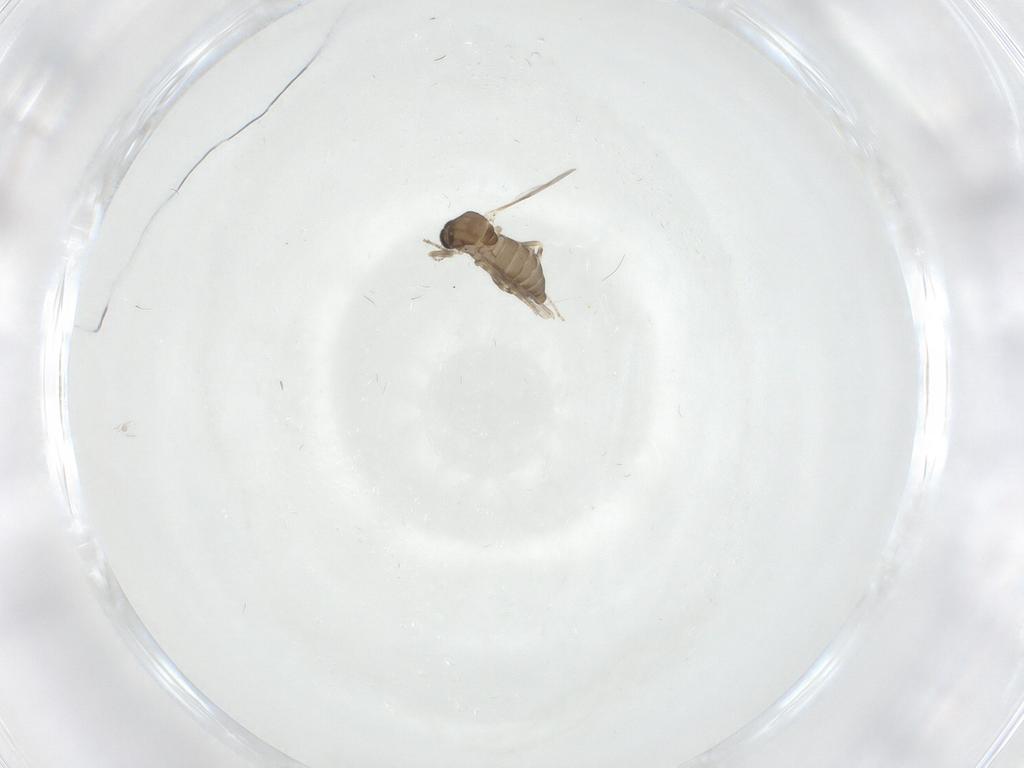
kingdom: Animalia
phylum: Arthropoda
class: Insecta
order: Diptera
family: Ceratopogonidae
